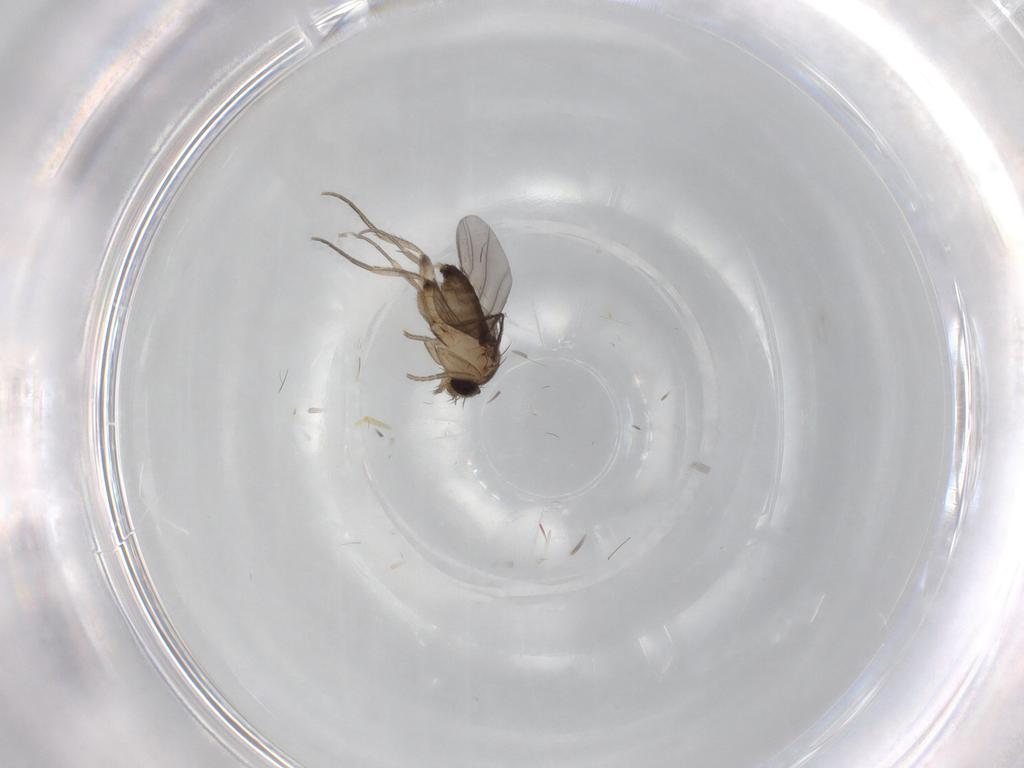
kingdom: Animalia
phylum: Arthropoda
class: Insecta
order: Diptera
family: Phoridae
